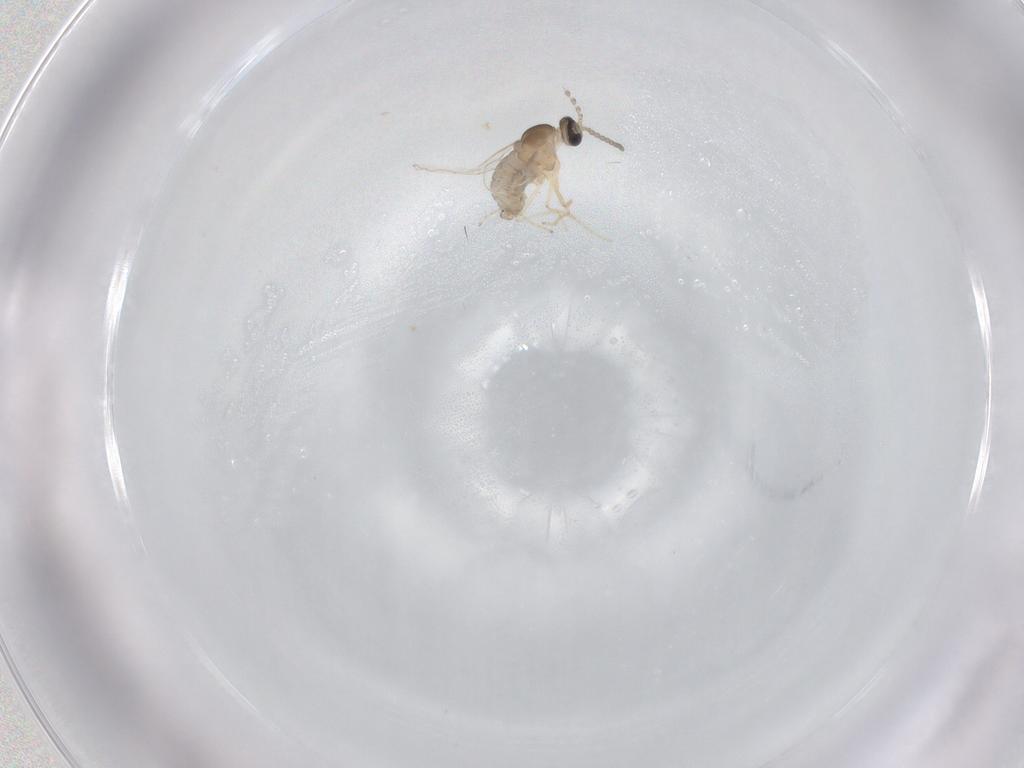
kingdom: Animalia
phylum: Arthropoda
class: Insecta
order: Diptera
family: Cecidomyiidae
